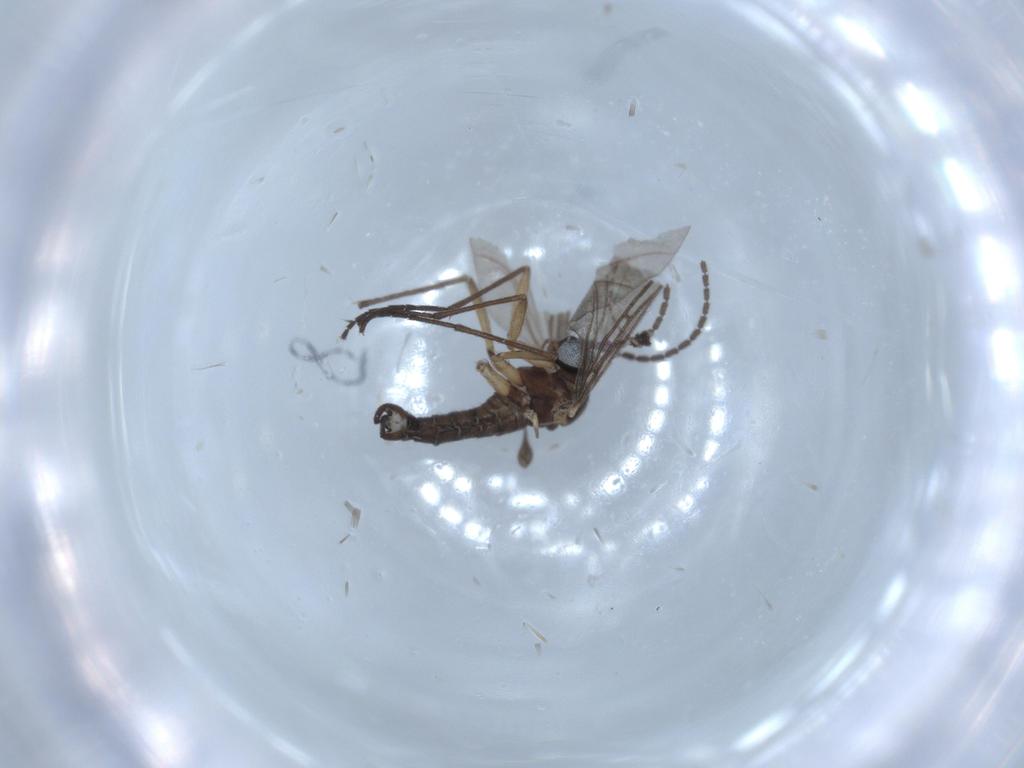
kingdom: Animalia
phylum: Arthropoda
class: Insecta
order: Diptera
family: Sciaridae
